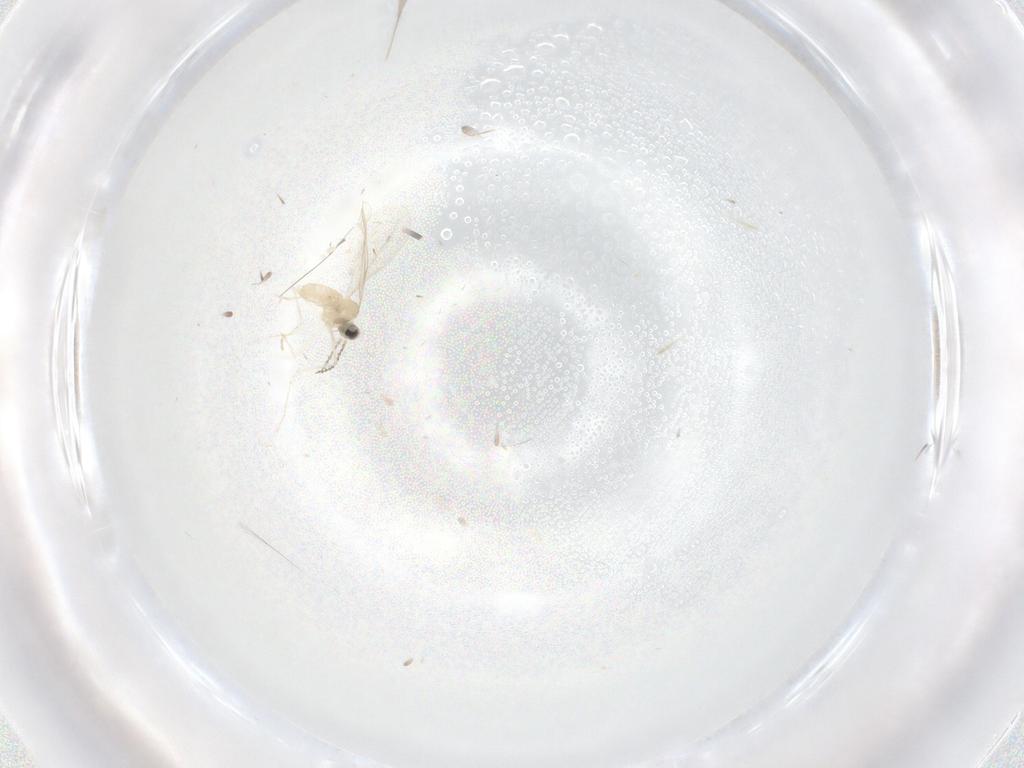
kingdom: Animalia
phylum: Arthropoda
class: Insecta
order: Diptera
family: Cecidomyiidae
